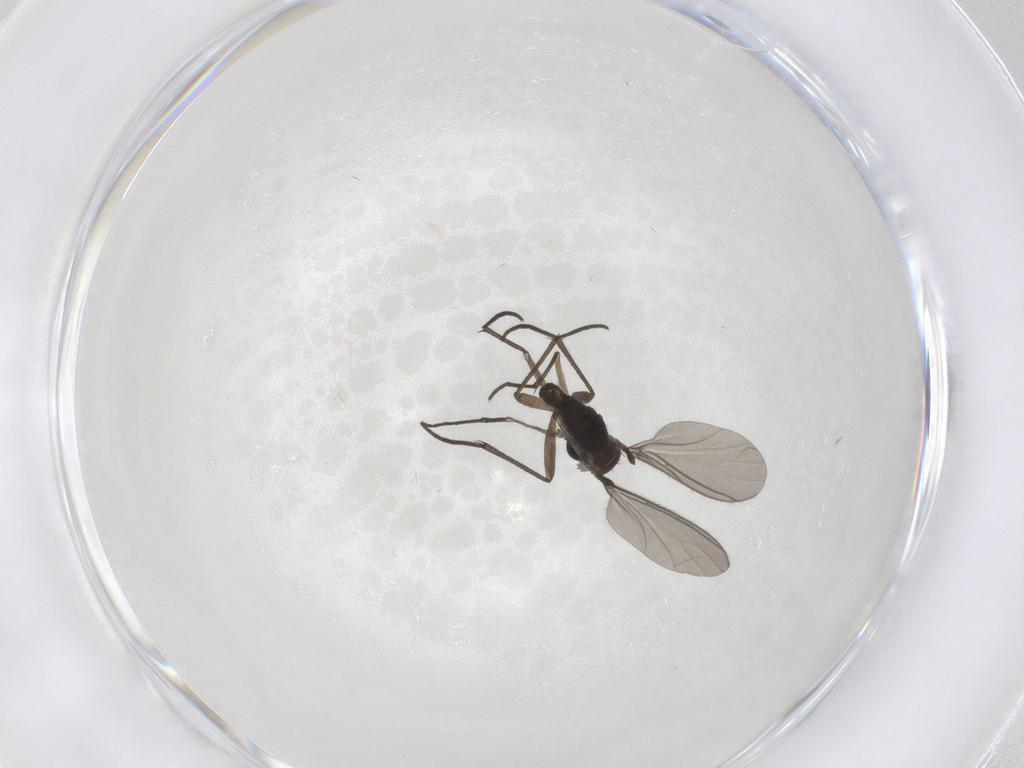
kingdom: Animalia
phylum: Arthropoda
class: Insecta
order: Diptera
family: Sciaridae
